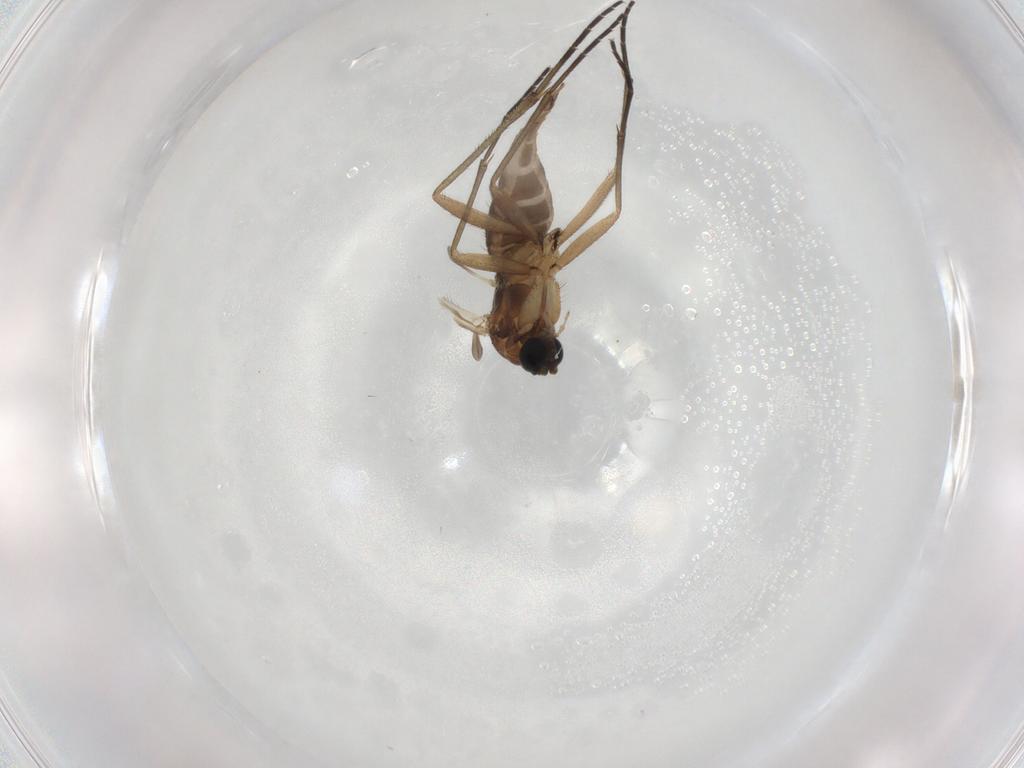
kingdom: Animalia
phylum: Arthropoda
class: Insecta
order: Diptera
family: Sciaridae
